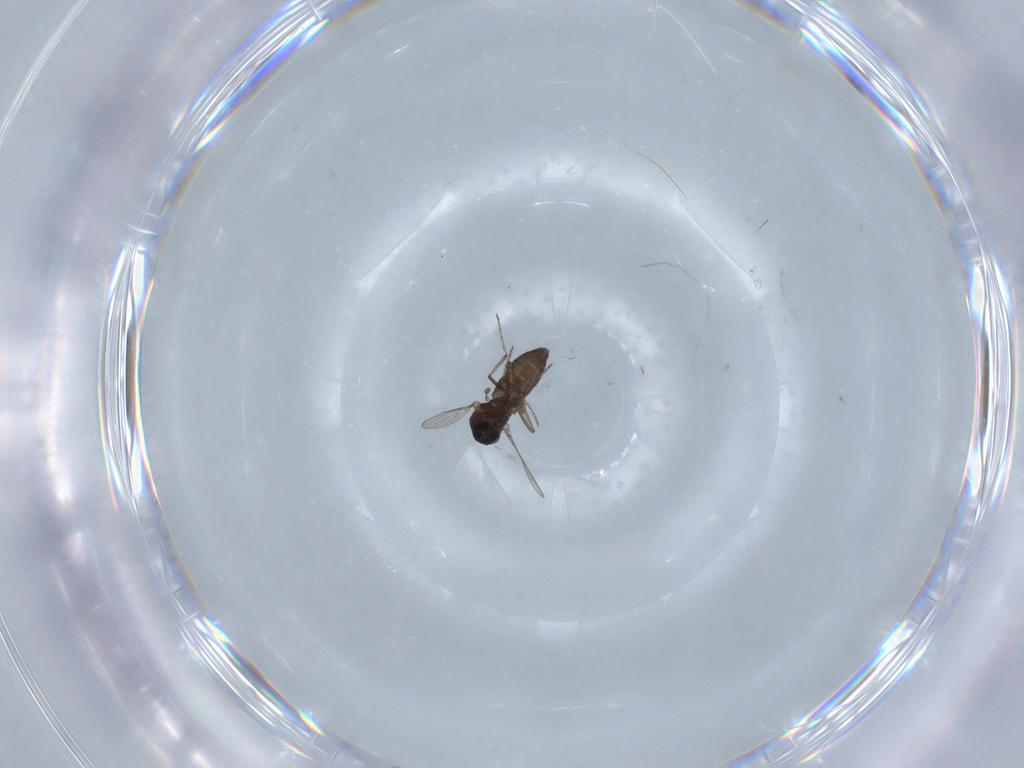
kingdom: Animalia
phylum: Arthropoda
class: Insecta
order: Diptera
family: Ceratopogonidae
